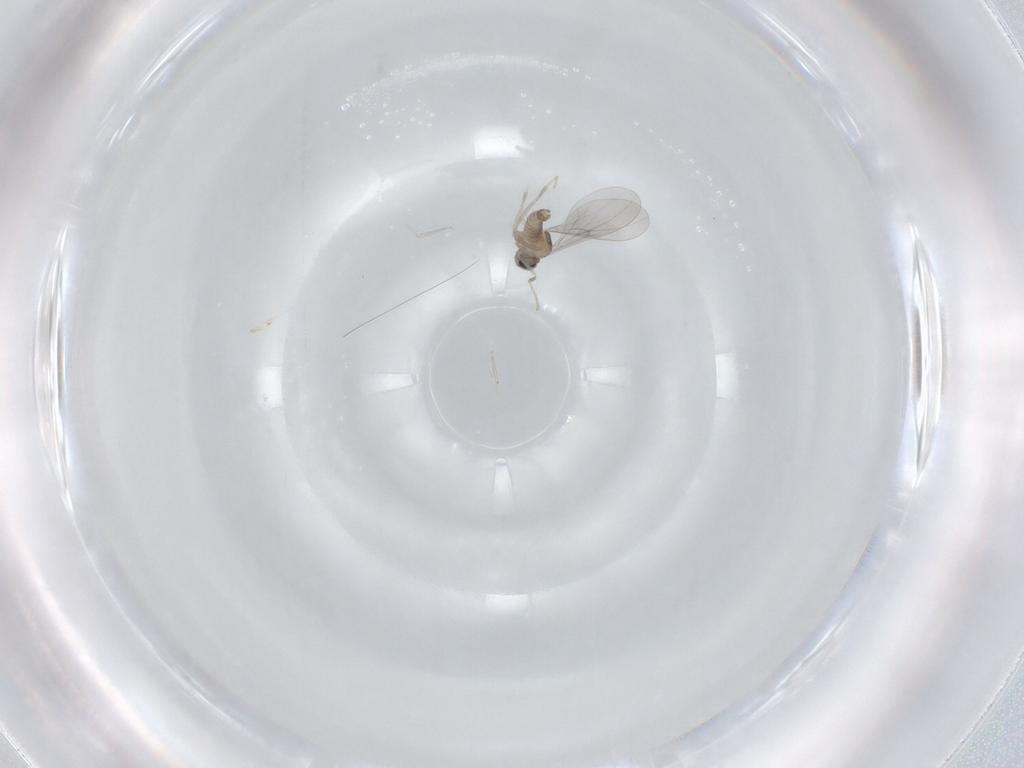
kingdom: Animalia
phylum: Arthropoda
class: Insecta
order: Diptera
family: Cecidomyiidae
